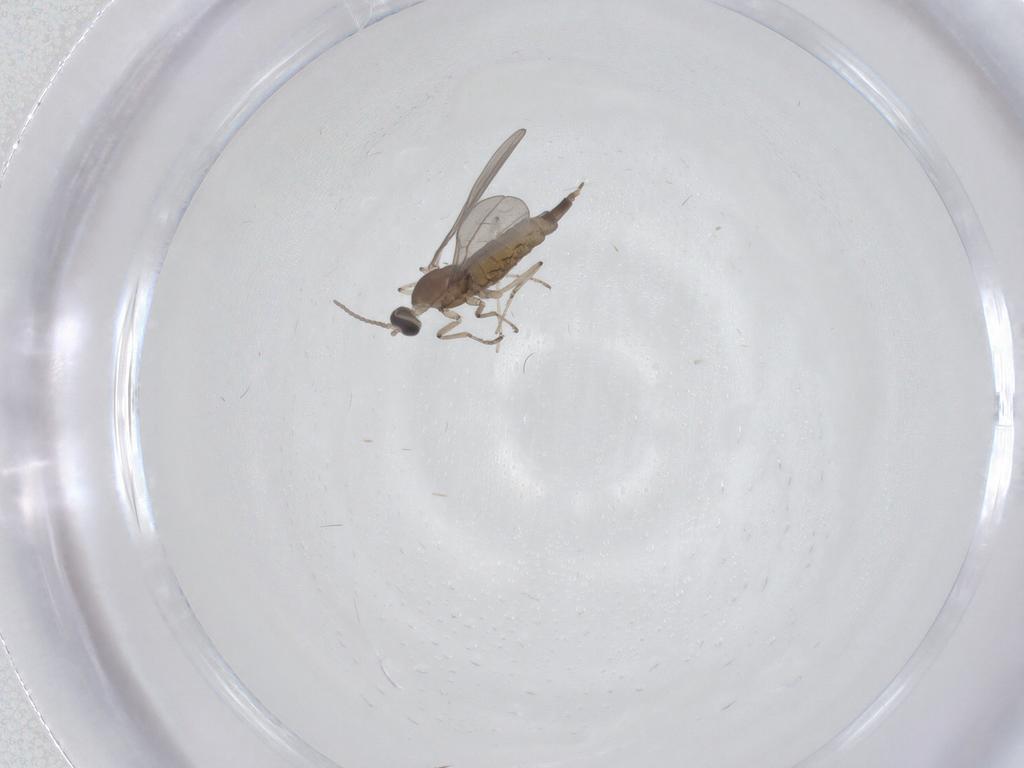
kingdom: Animalia
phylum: Arthropoda
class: Insecta
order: Diptera
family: Cecidomyiidae
